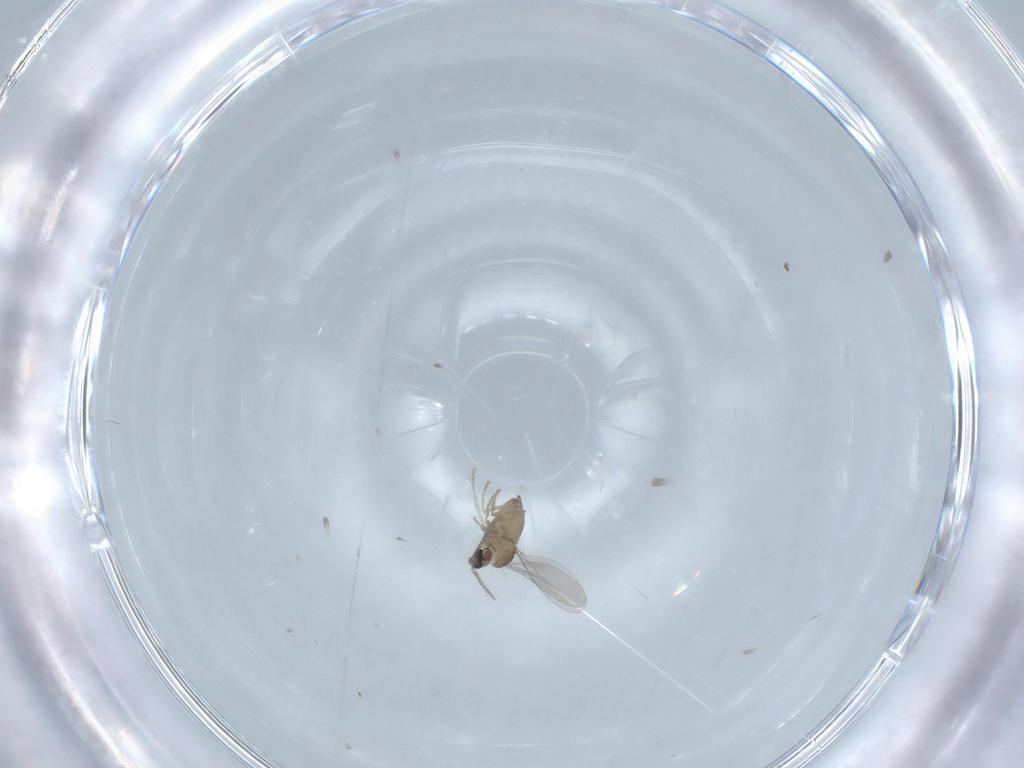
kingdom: Animalia
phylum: Arthropoda
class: Insecta
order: Diptera
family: Cecidomyiidae
